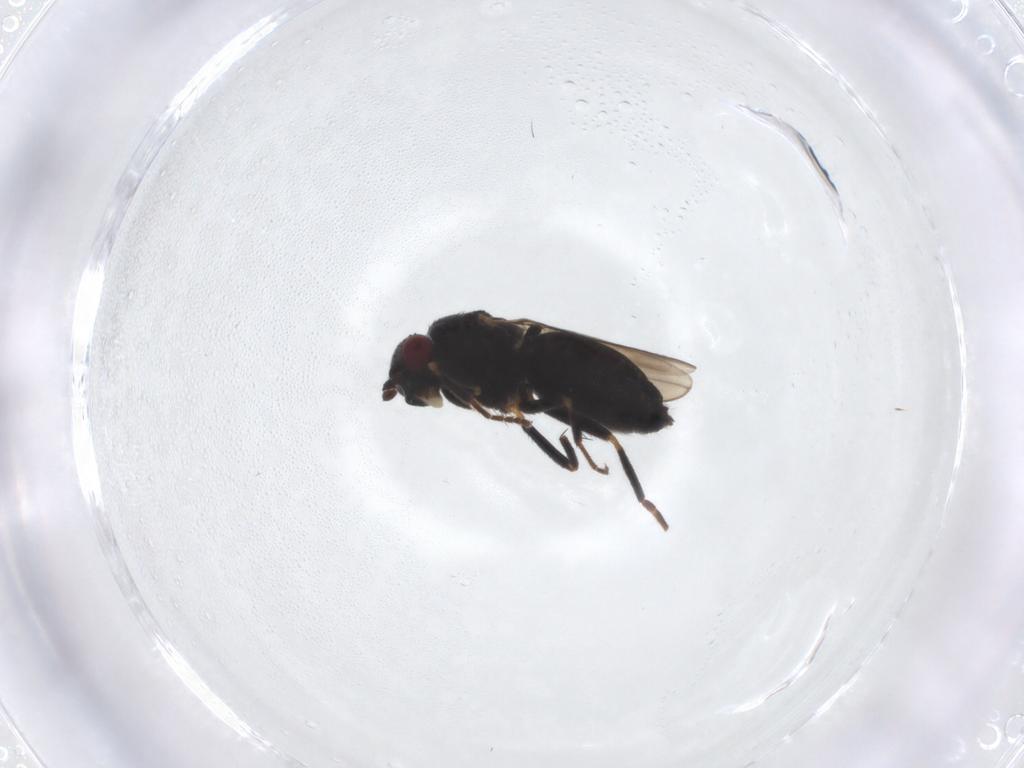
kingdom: Animalia
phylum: Arthropoda
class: Insecta
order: Diptera
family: Sphaeroceridae
